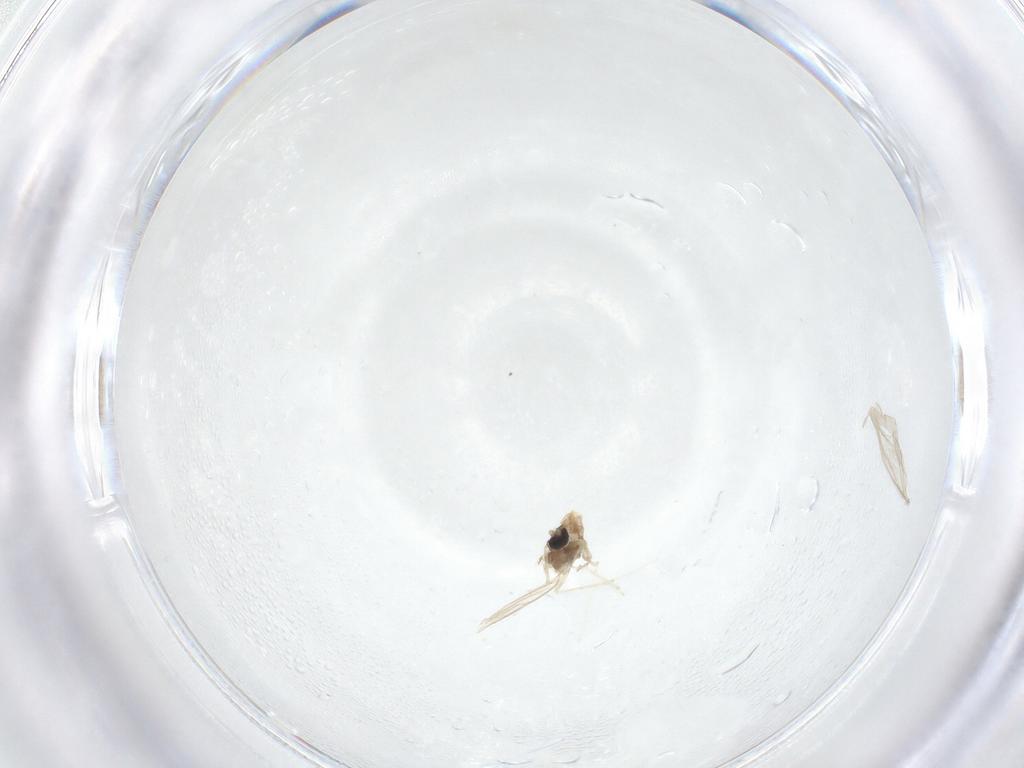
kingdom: Animalia
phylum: Arthropoda
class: Insecta
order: Diptera
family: Cecidomyiidae
